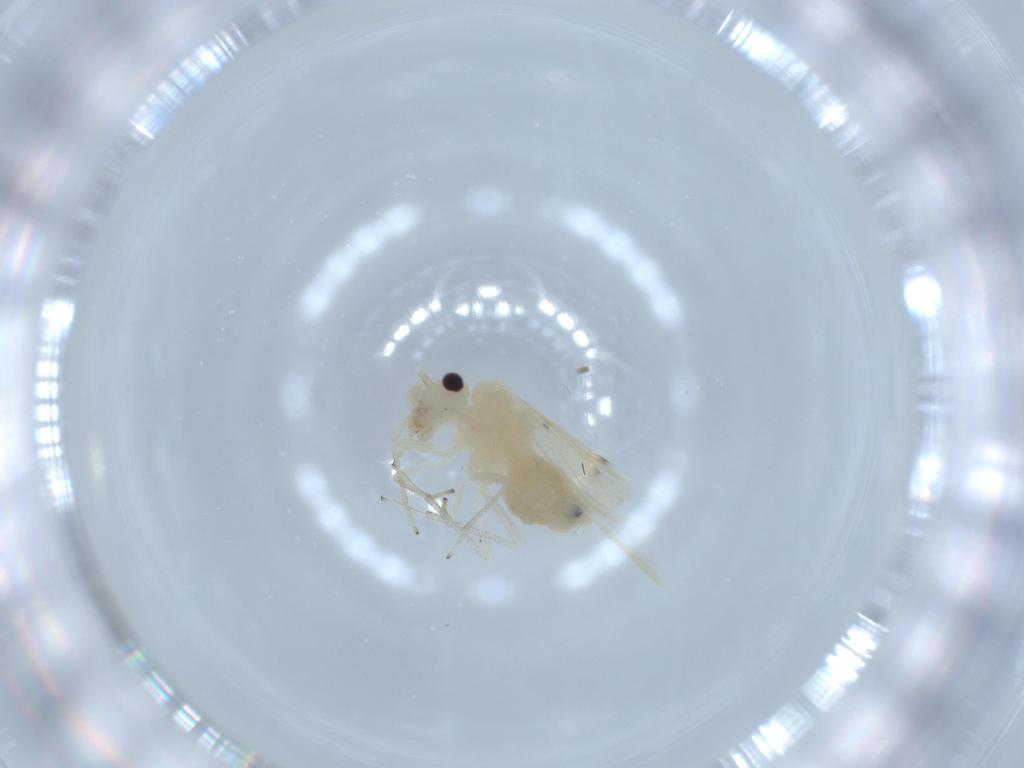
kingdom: Animalia
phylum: Arthropoda
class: Insecta
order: Psocodea
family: Caeciliusidae
